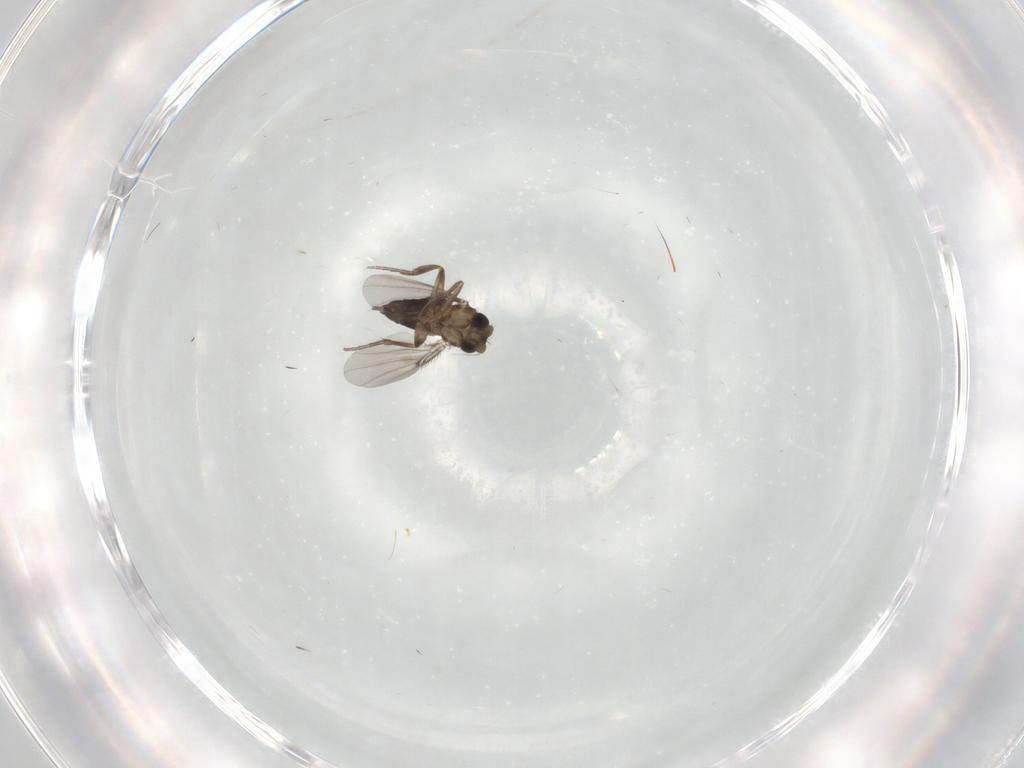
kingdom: Animalia
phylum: Arthropoda
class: Insecta
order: Diptera
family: Phoridae
